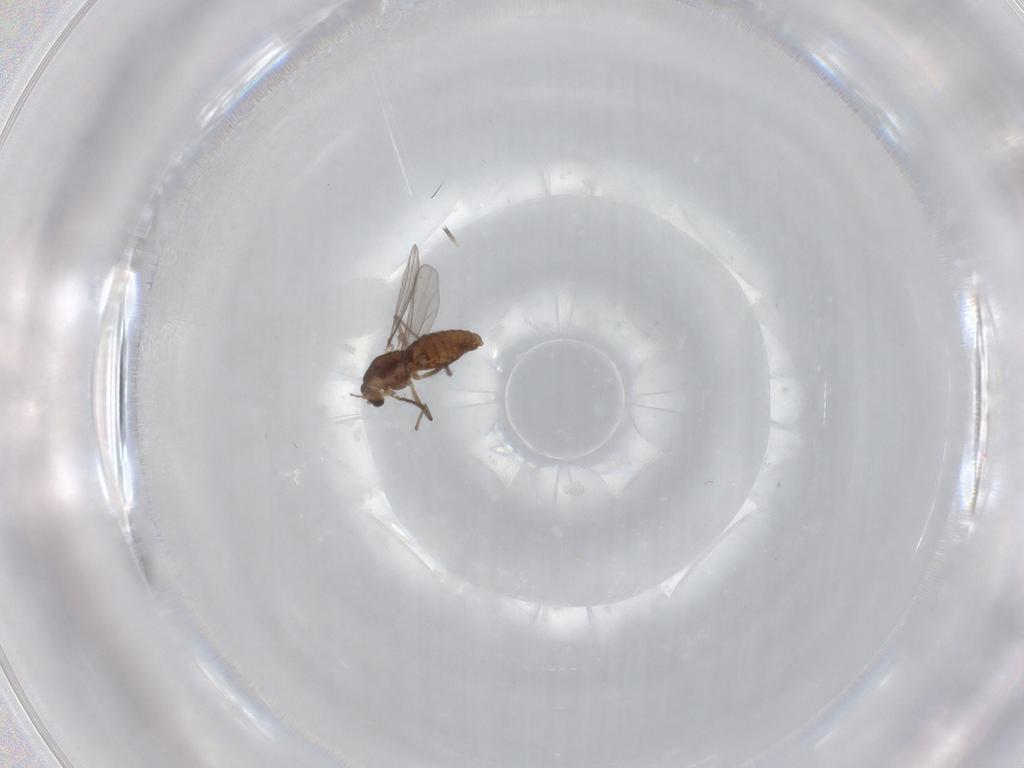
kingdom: Animalia
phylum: Arthropoda
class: Insecta
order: Diptera
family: Chironomidae
